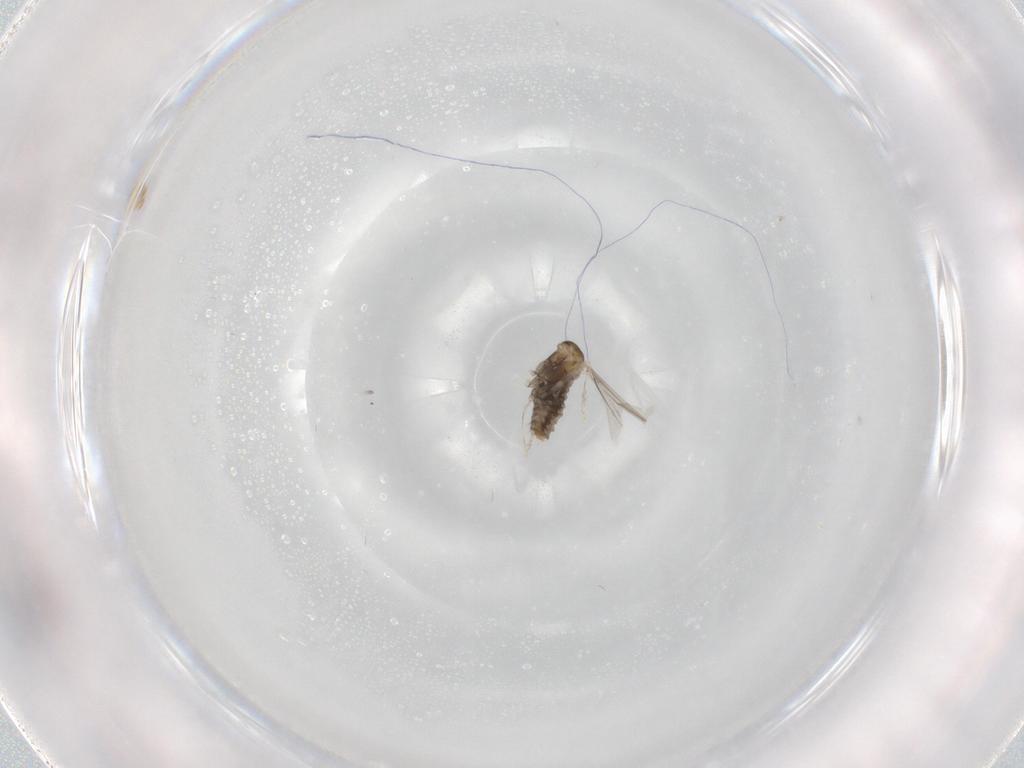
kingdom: Animalia
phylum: Arthropoda
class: Insecta
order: Diptera
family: Cecidomyiidae
